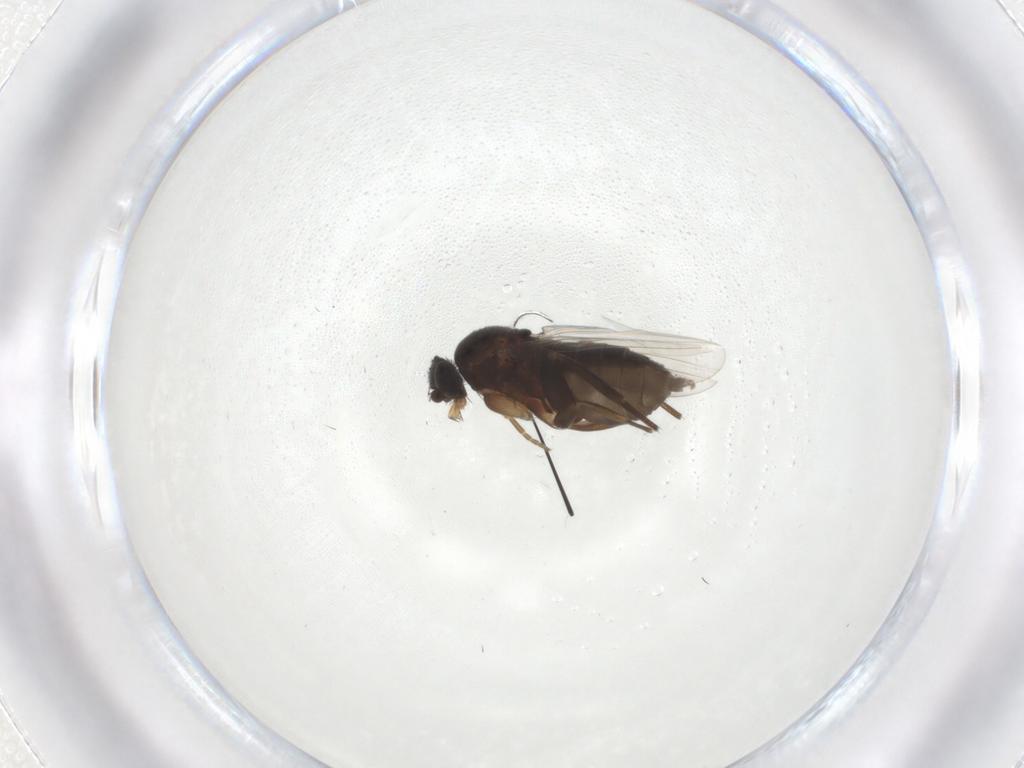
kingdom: Animalia
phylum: Arthropoda
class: Insecta
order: Diptera
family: Phoridae
